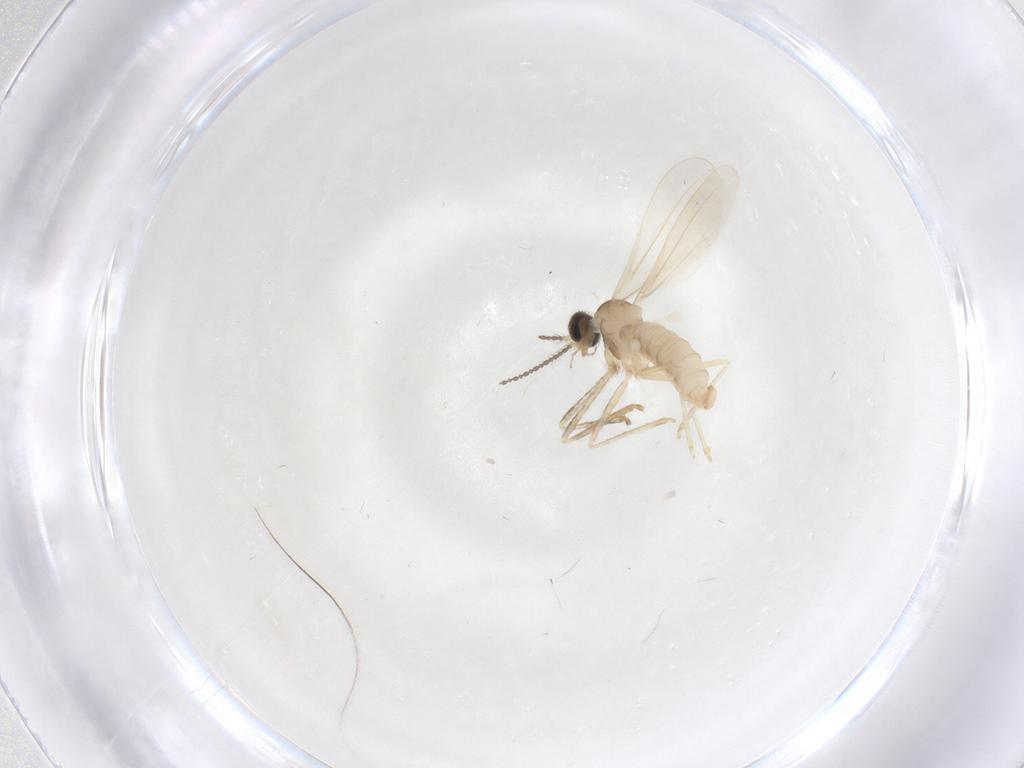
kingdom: Animalia
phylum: Arthropoda
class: Insecta
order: Diptera
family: Cecidomyiidae
